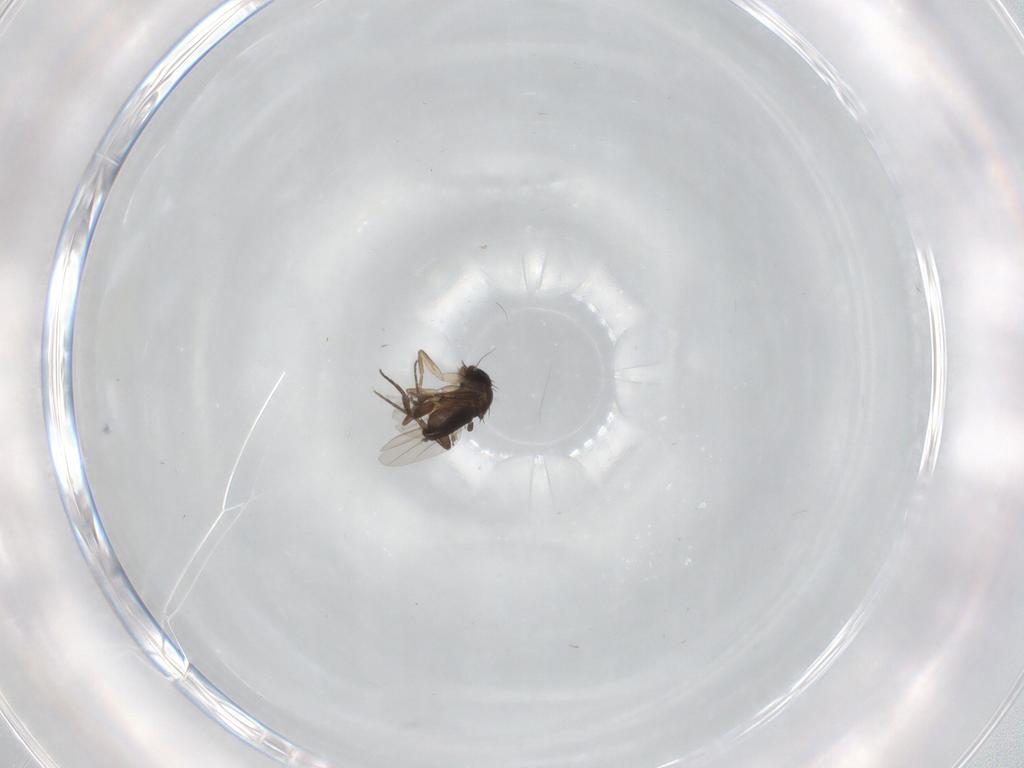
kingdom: Animalia
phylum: Arthropoda
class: Insecta
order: Diptera
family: Phoridae
